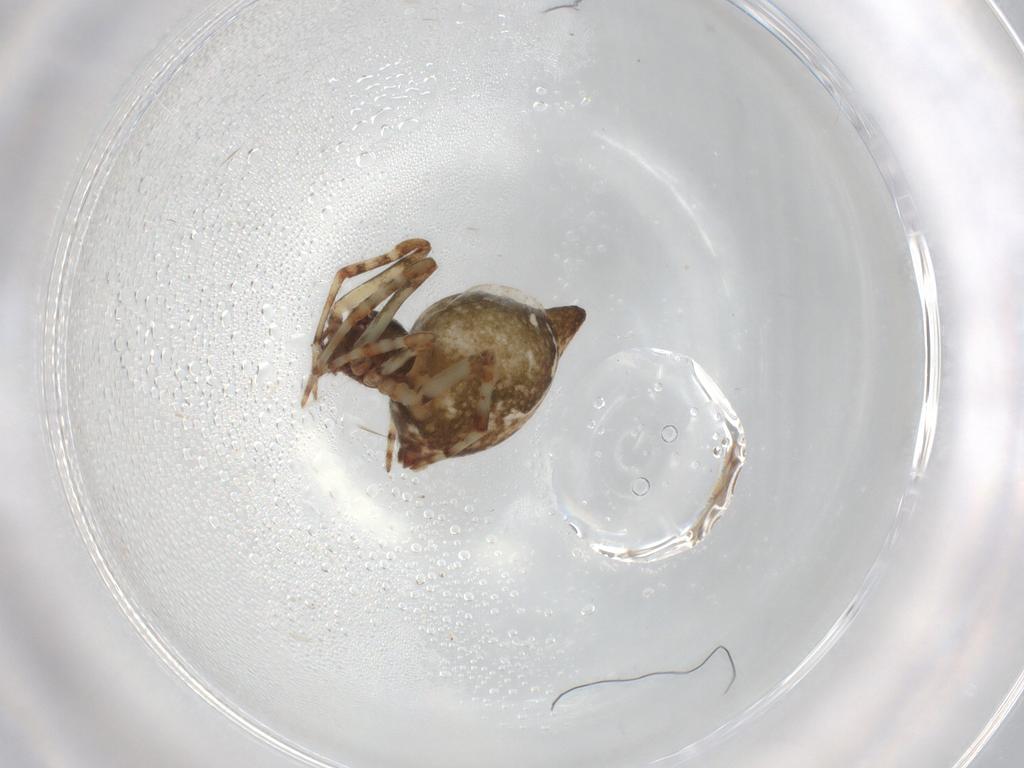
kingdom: Animalia
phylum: Arthropoda
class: Arachnida
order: Araneae
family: Theridiidae
